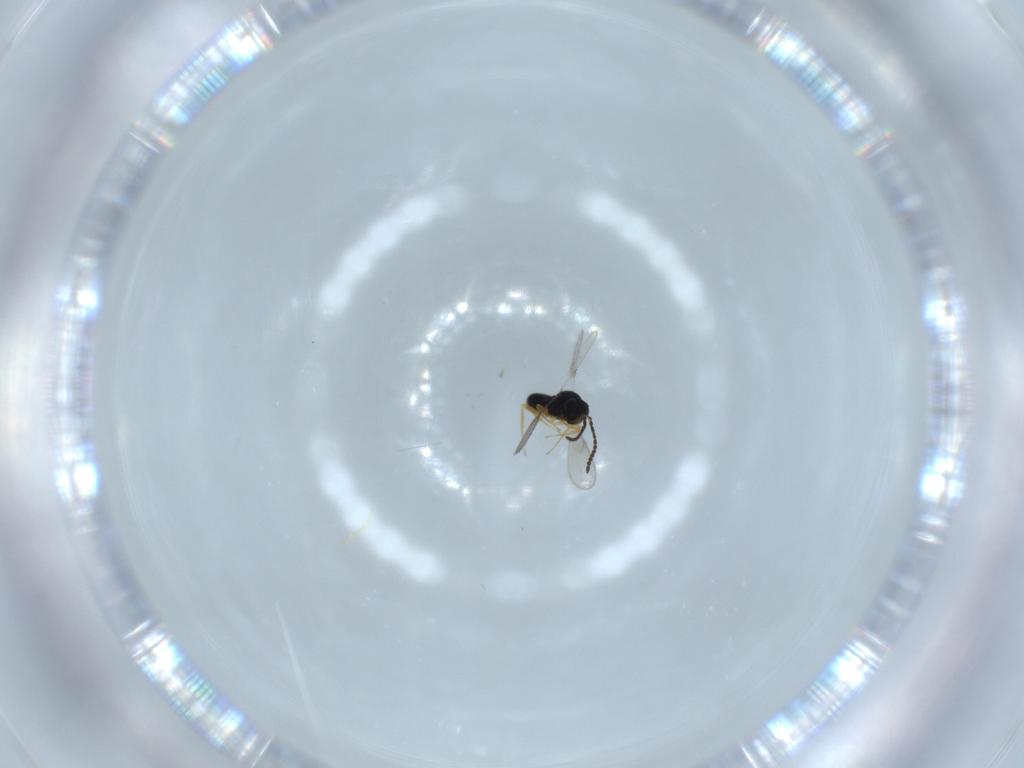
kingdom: Animalia
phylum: Arthropoda
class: Insecta
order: Hymenoptera
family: Scelionidae
